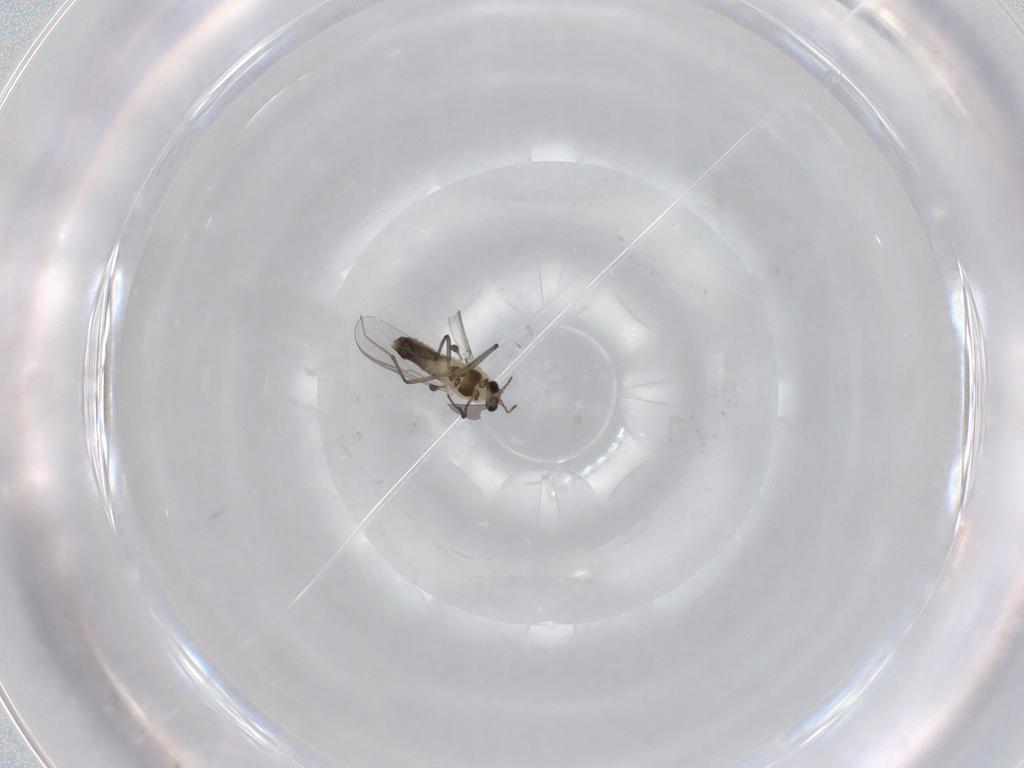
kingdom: Animalia
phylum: Arthropoda
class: Insecta
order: Diptera
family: Chironomidae
